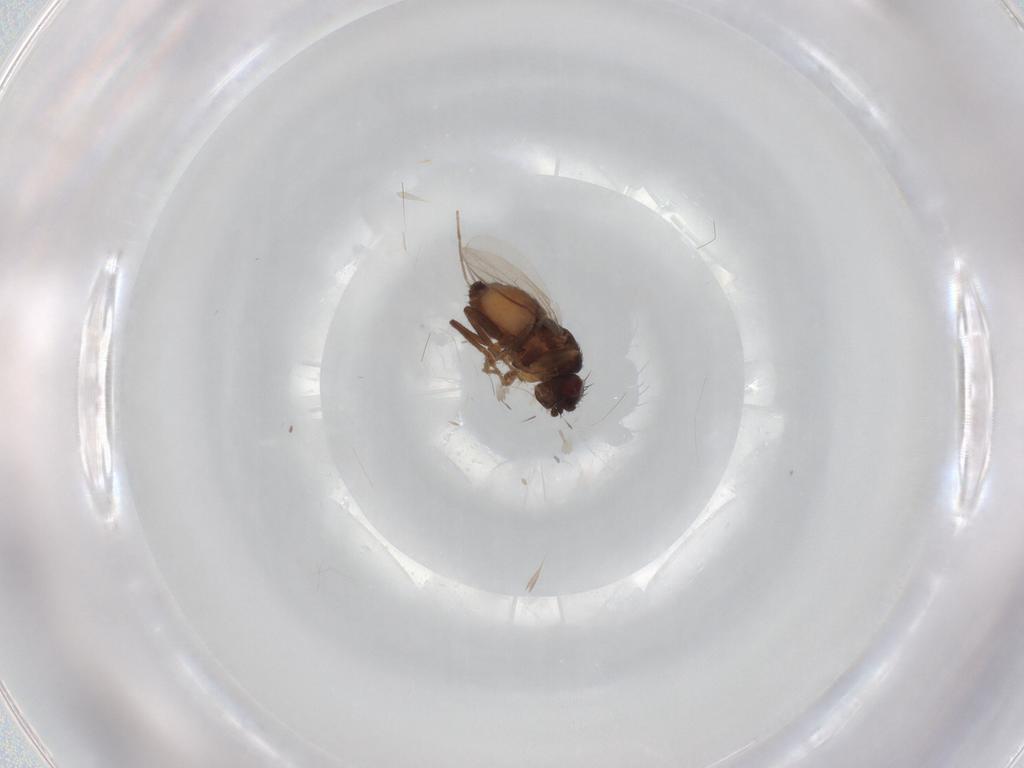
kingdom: Animalia
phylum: Arthropoda
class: Insecta
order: Diptera
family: Sphaeroceridae
